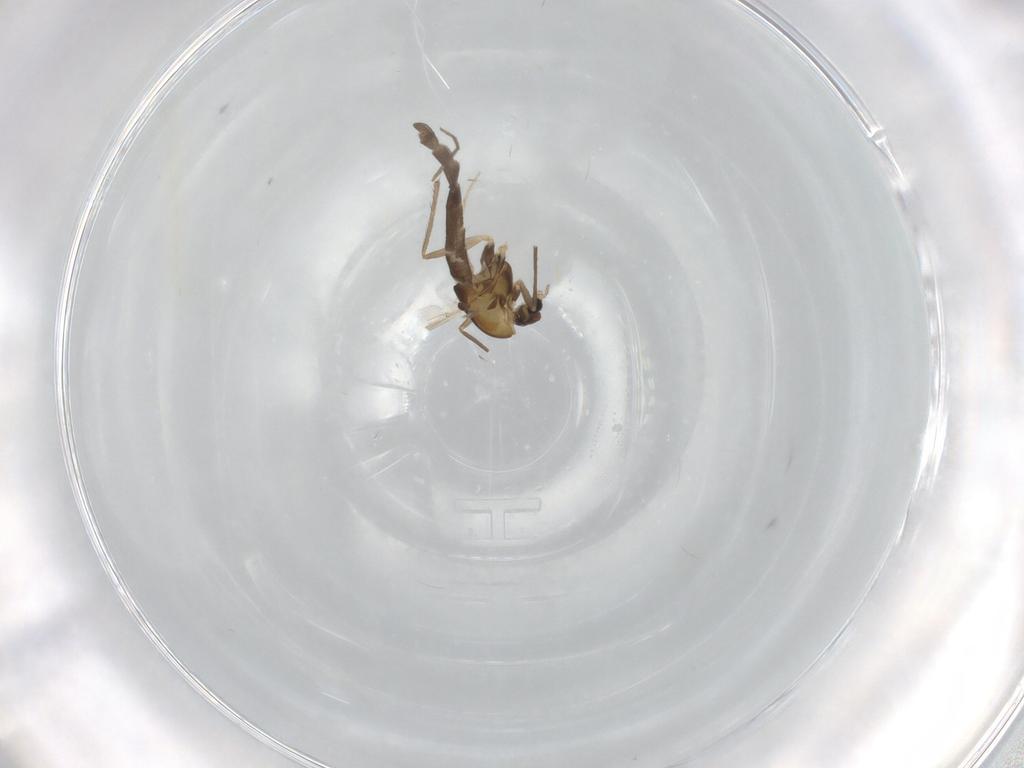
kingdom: Animalia
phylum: Arthropoda
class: Insecta
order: Diptera
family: Chironomidae
